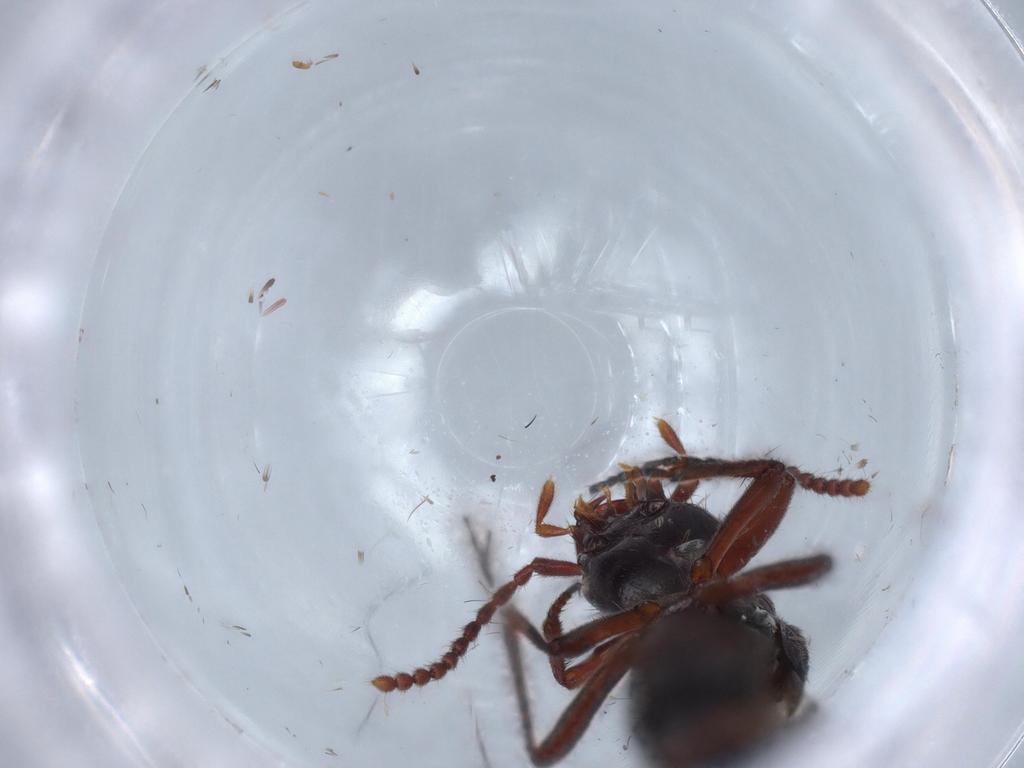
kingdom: Animalia
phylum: Arthropoda
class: Insecta
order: Coleoptera
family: Staphylinidae
